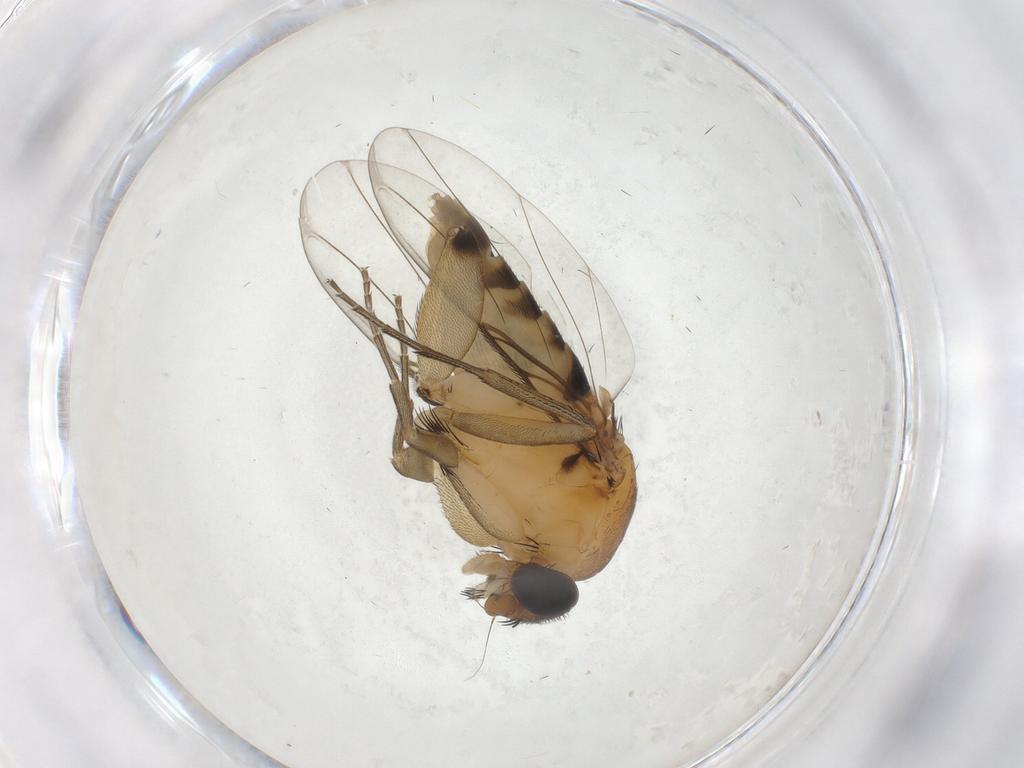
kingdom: Animalia
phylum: Arthropoda
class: Insecta
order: Diptera
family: Phoridae
